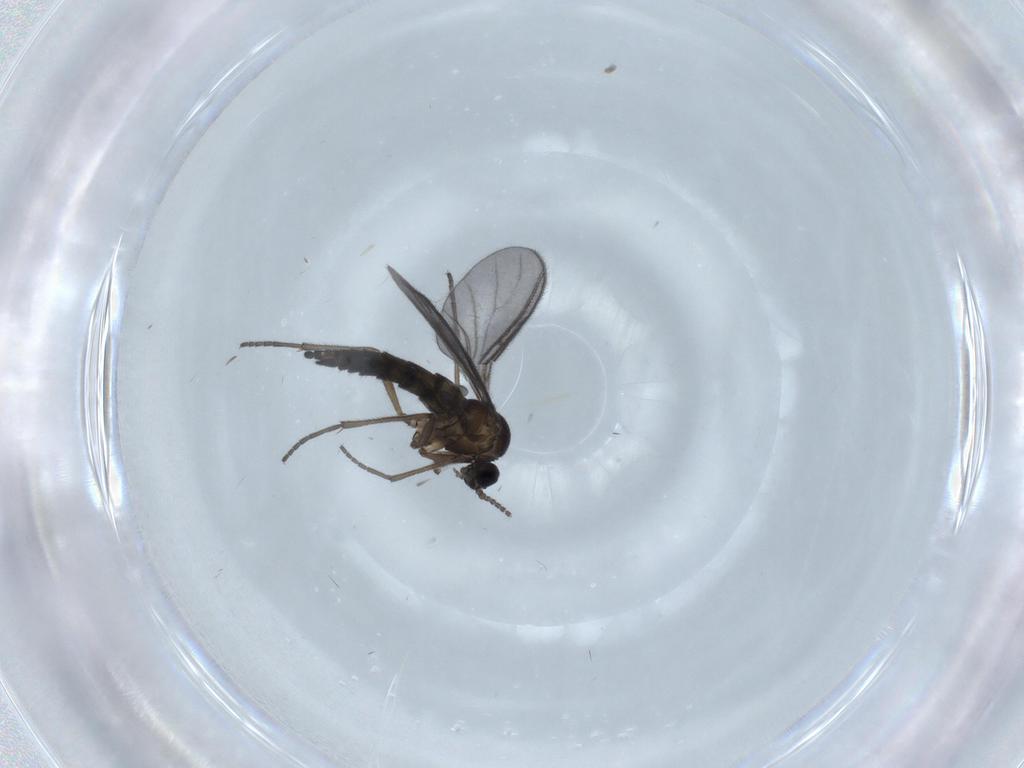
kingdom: Animalia
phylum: Arthropoda
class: Insecta
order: Diptera
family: Sciaridae
